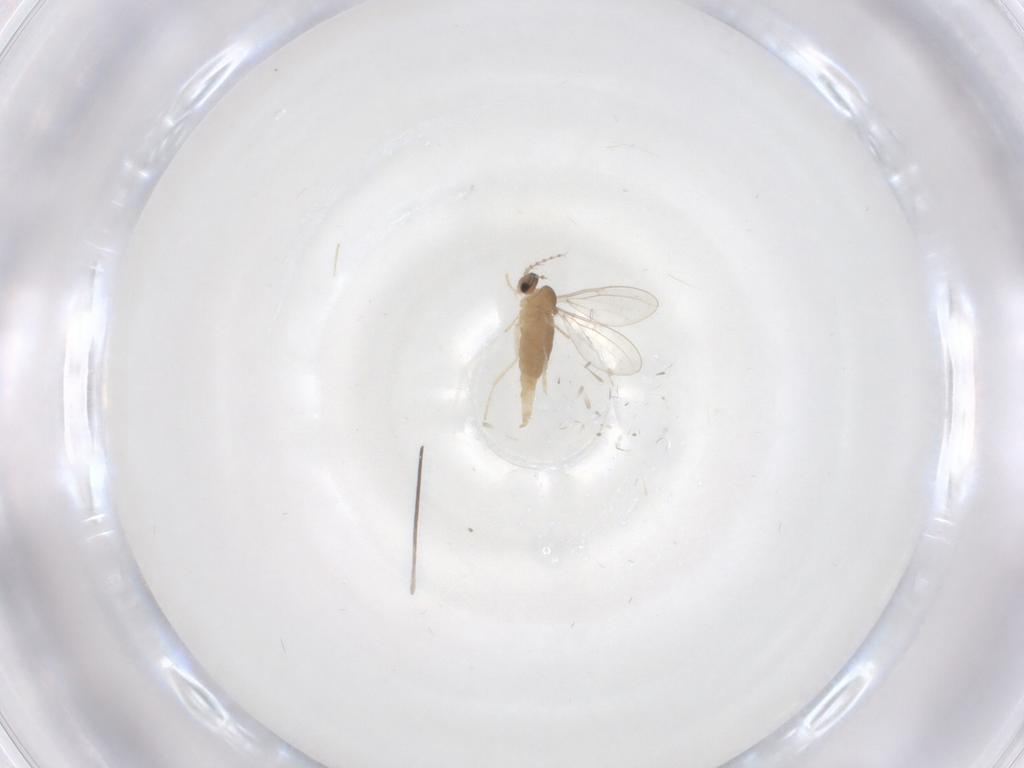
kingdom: Animalia
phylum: Arthropoda
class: Insecta
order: Diptera
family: Cecidomyiidae
